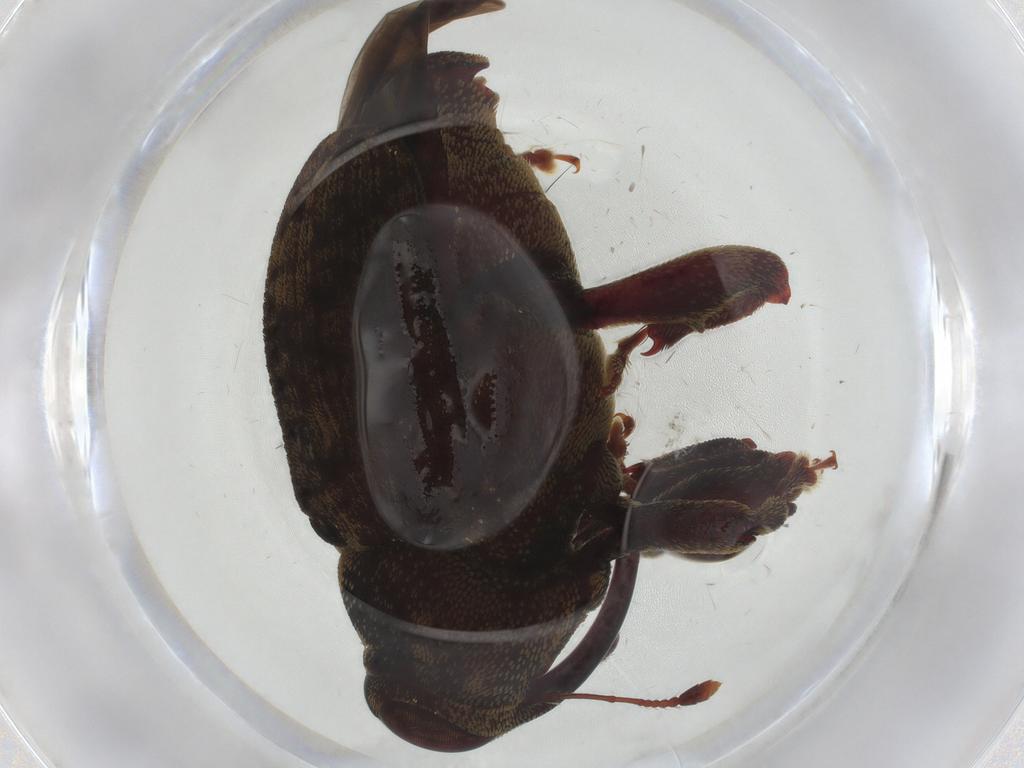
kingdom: Animalia
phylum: Arthropoda
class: Insecta
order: Coleoptera
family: Curculionidae
